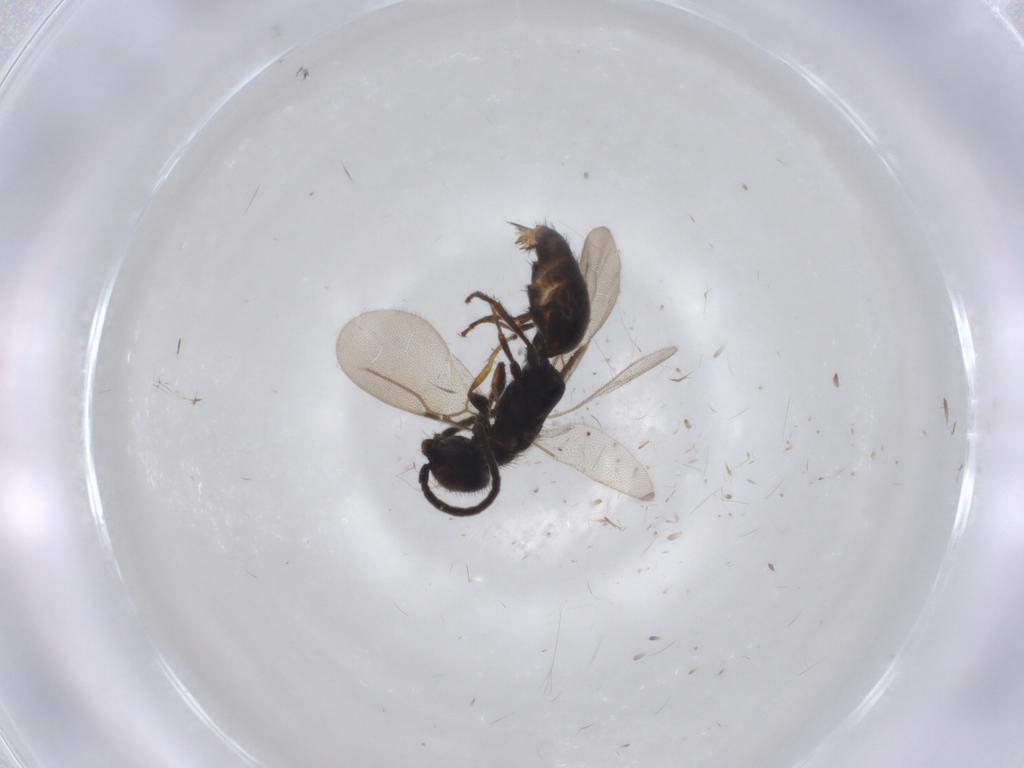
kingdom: Animalia
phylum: Arthropoda
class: Insecta
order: Hymenoptera
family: Bethylidae
